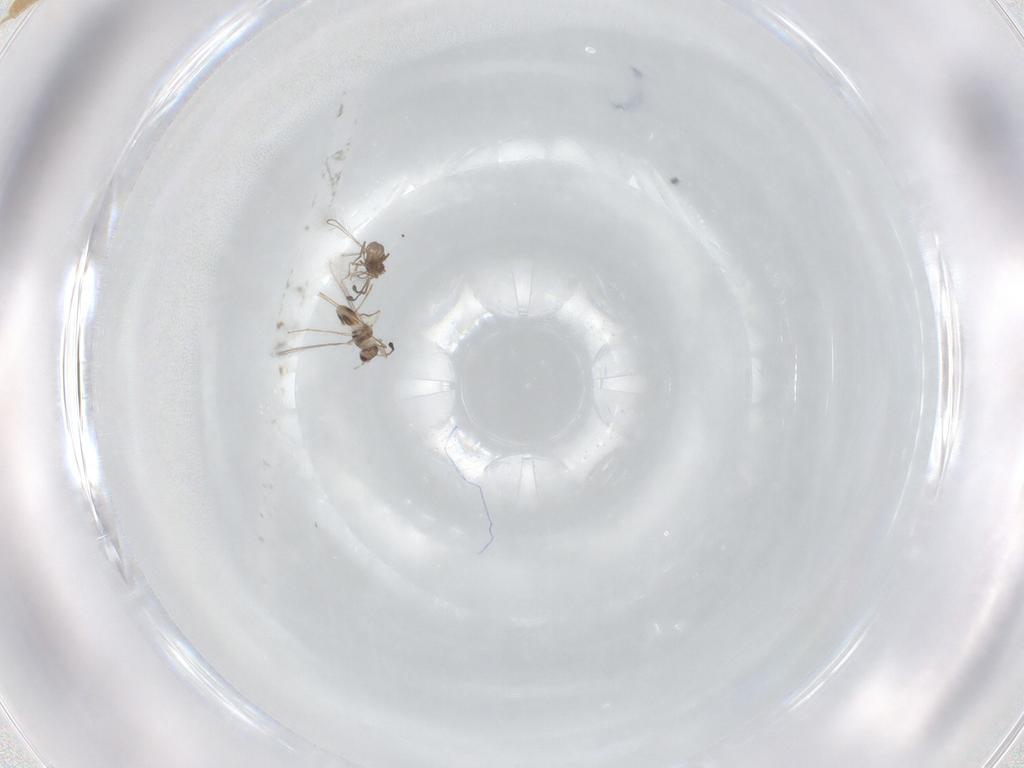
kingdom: Animalia
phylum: Arthropoda
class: Insecta
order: Hymenoptera
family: Mymaridae
